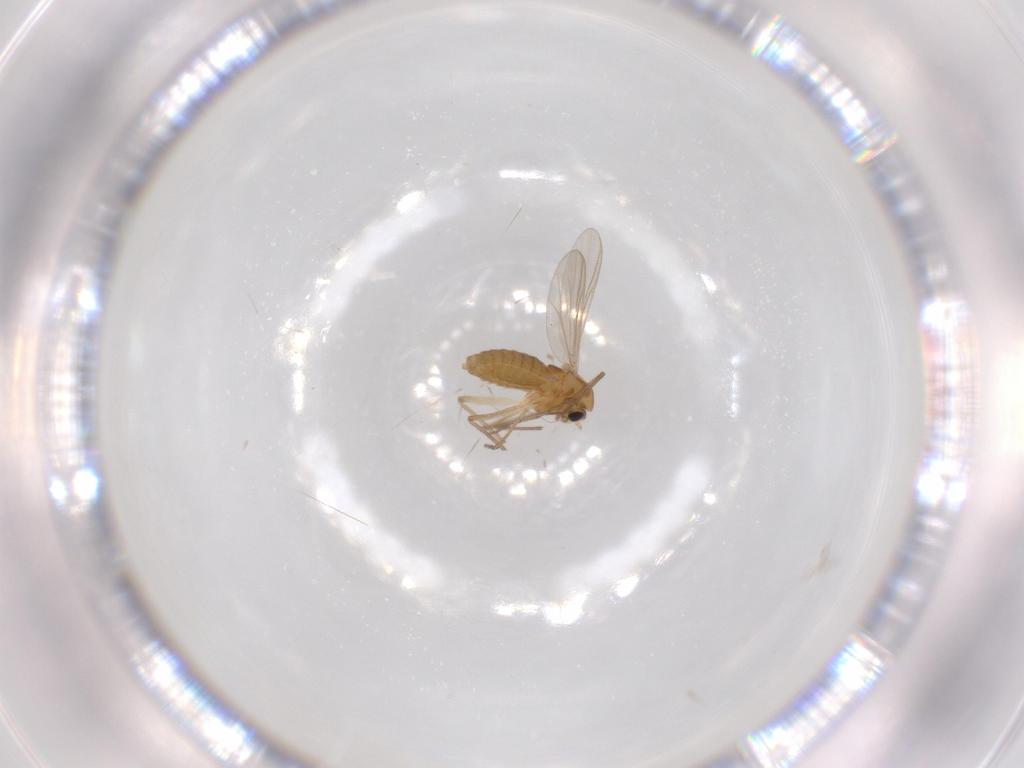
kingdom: Animalia
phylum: Arthropoda
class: Insecta
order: Diptera
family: Chironomidae
